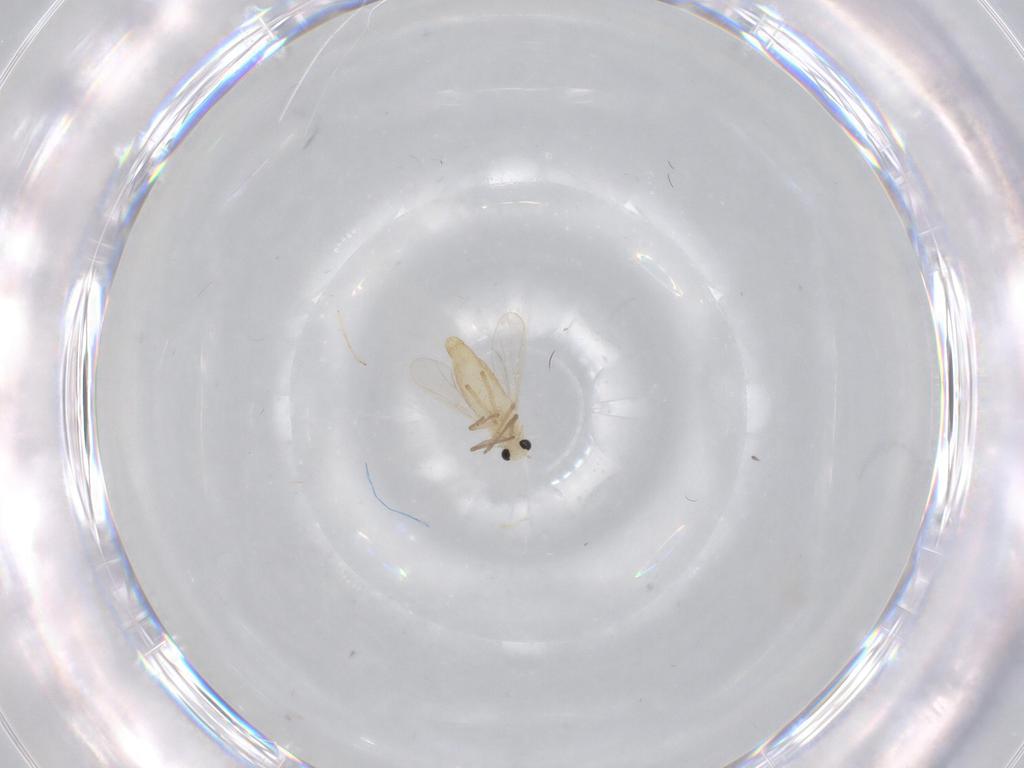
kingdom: Animalia
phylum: Arthropoda
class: Insecta
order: Diptera
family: Chironomidae
